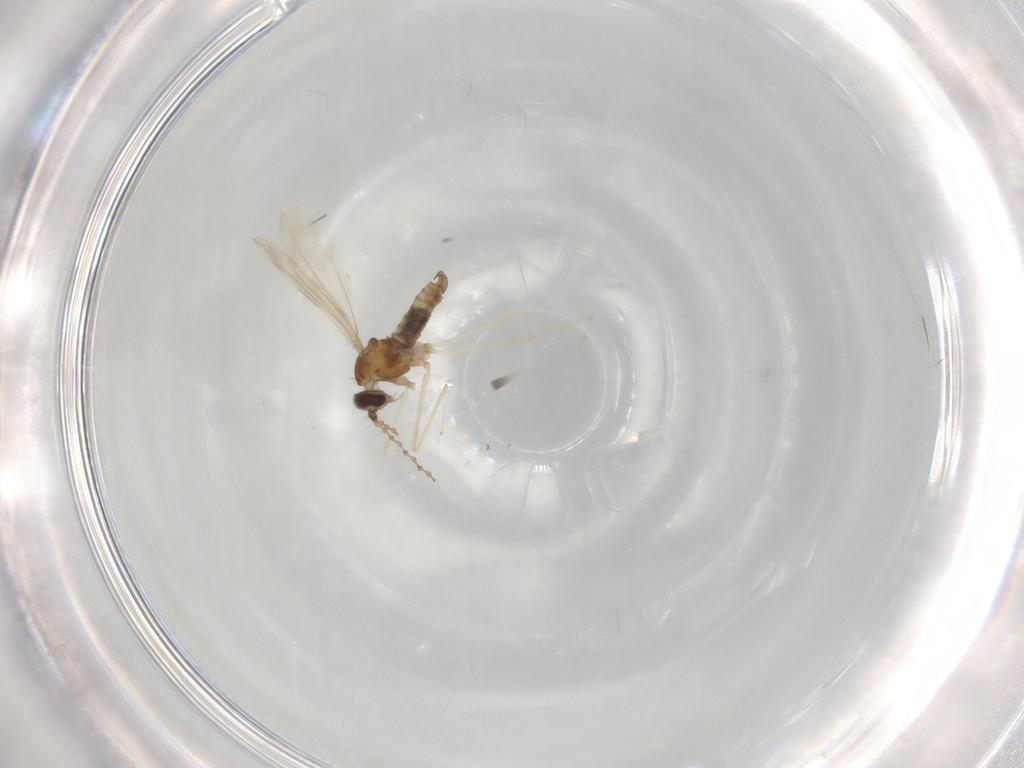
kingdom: Animalia
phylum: Arthropoda
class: Insecta
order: Diptera
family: Cecidomyiidae
